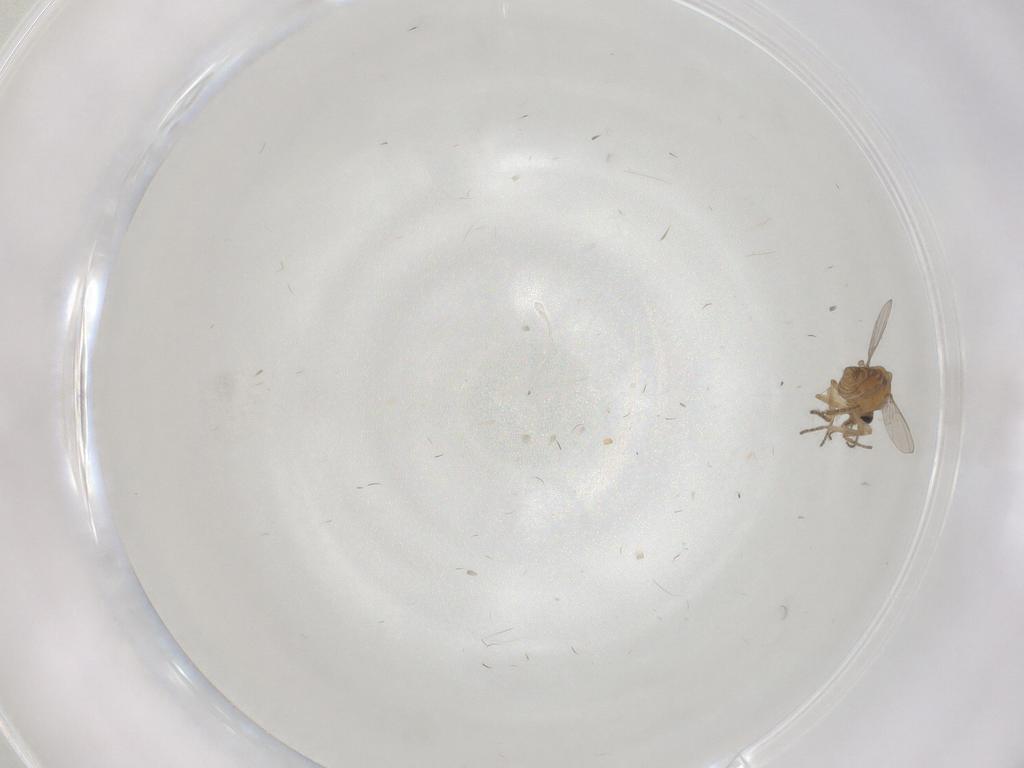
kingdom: Animalia
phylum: Arthropoda
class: Insecta
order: Diptera
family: Ceratopogonidae
